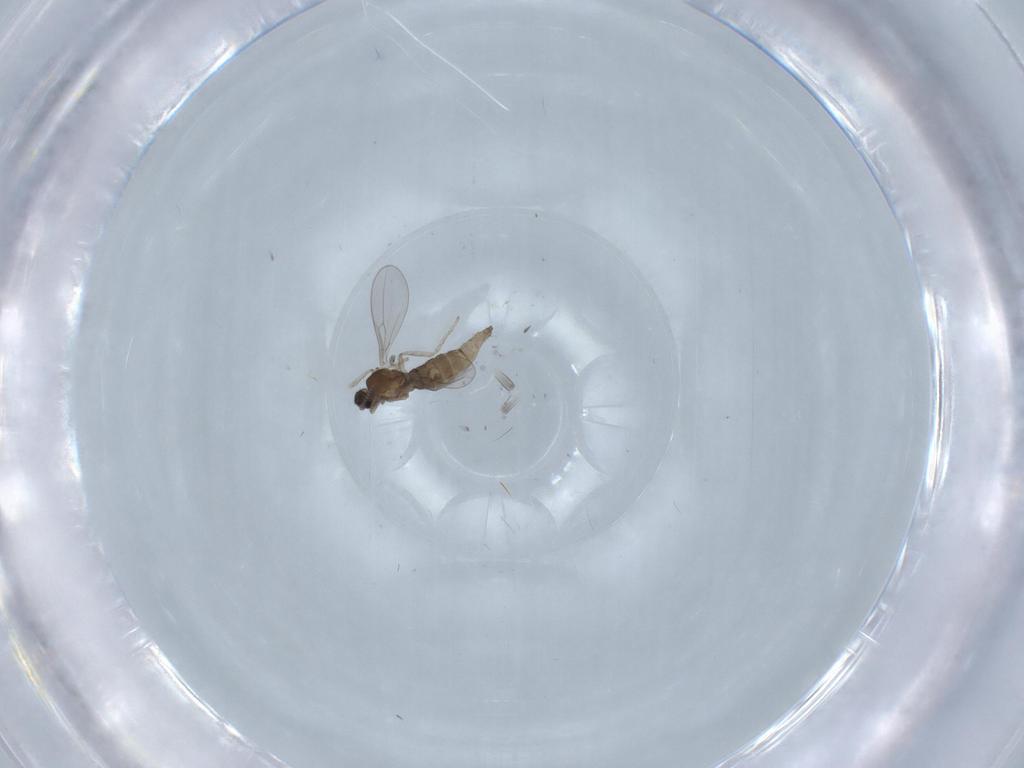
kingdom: Animalia
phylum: Arthropoda
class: Insecta
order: Diptera
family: Cecidomyiidae
